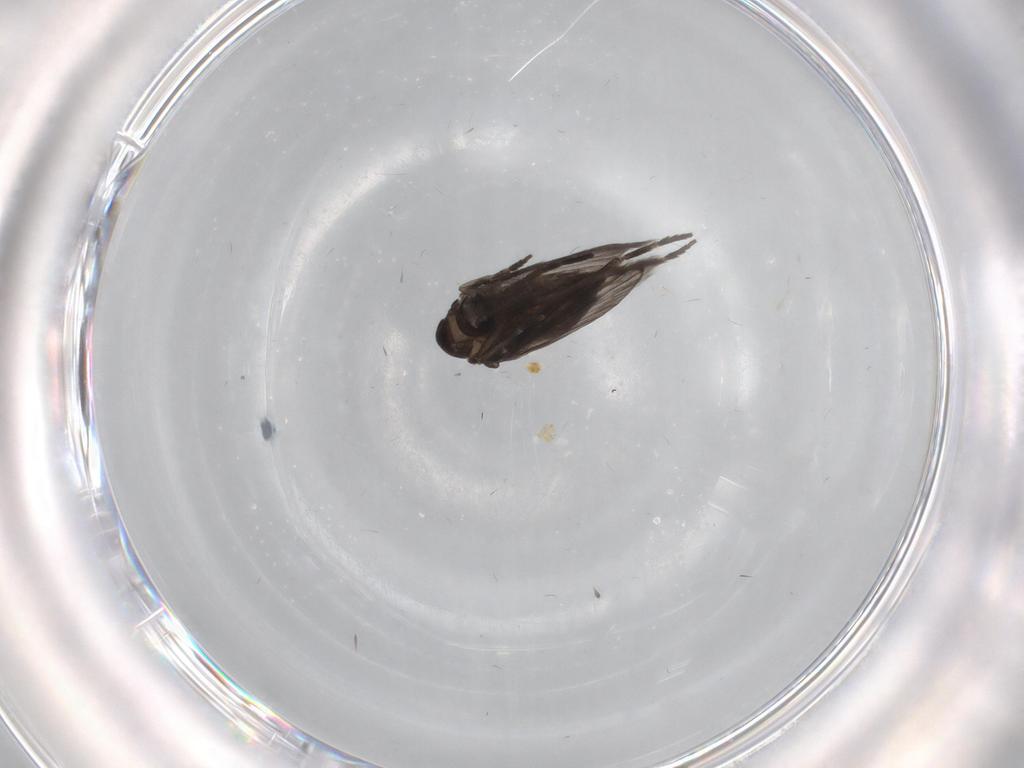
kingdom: Animalia
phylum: Arthropoda
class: Insecta
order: Diptera
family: Psychodidae
